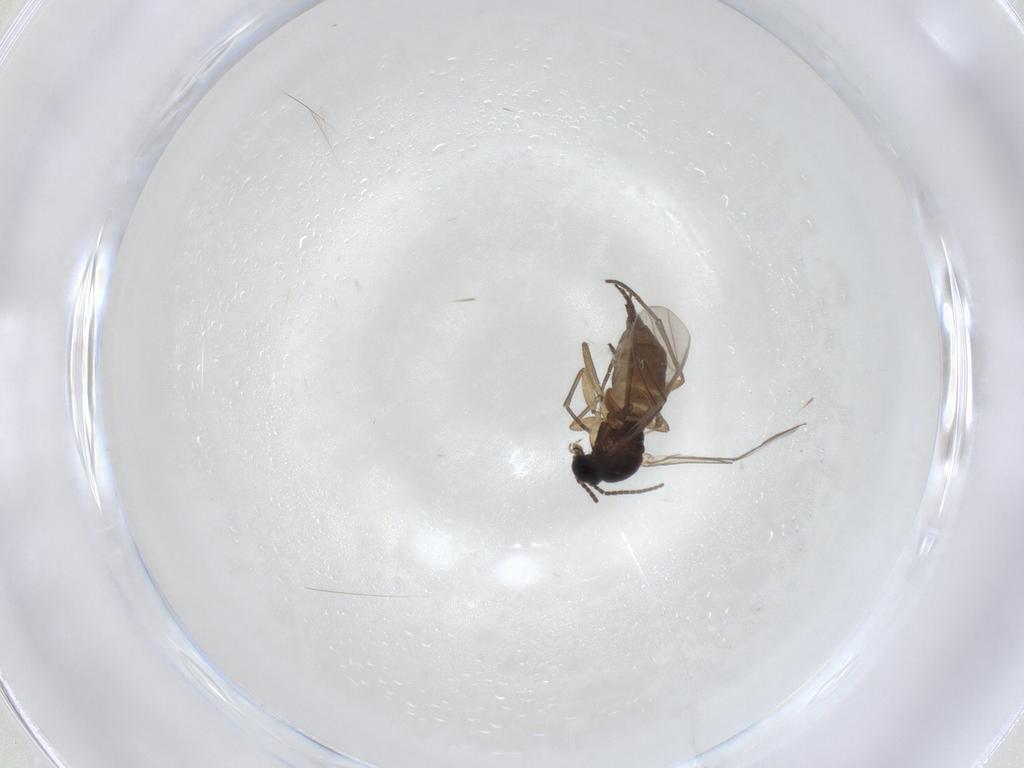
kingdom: Animalia
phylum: Arthropoda
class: Insecta
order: Diptera
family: Sciaridae
